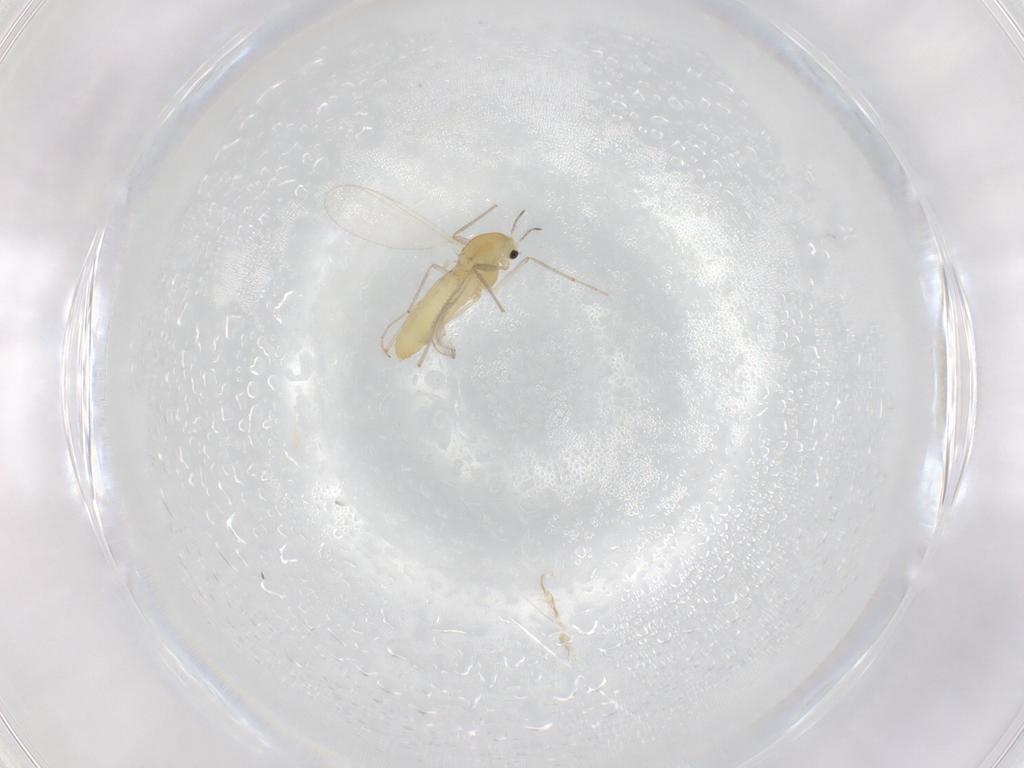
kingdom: Animalia
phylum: Arthropoda
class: Insecta
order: Diptera
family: Chironomidae
